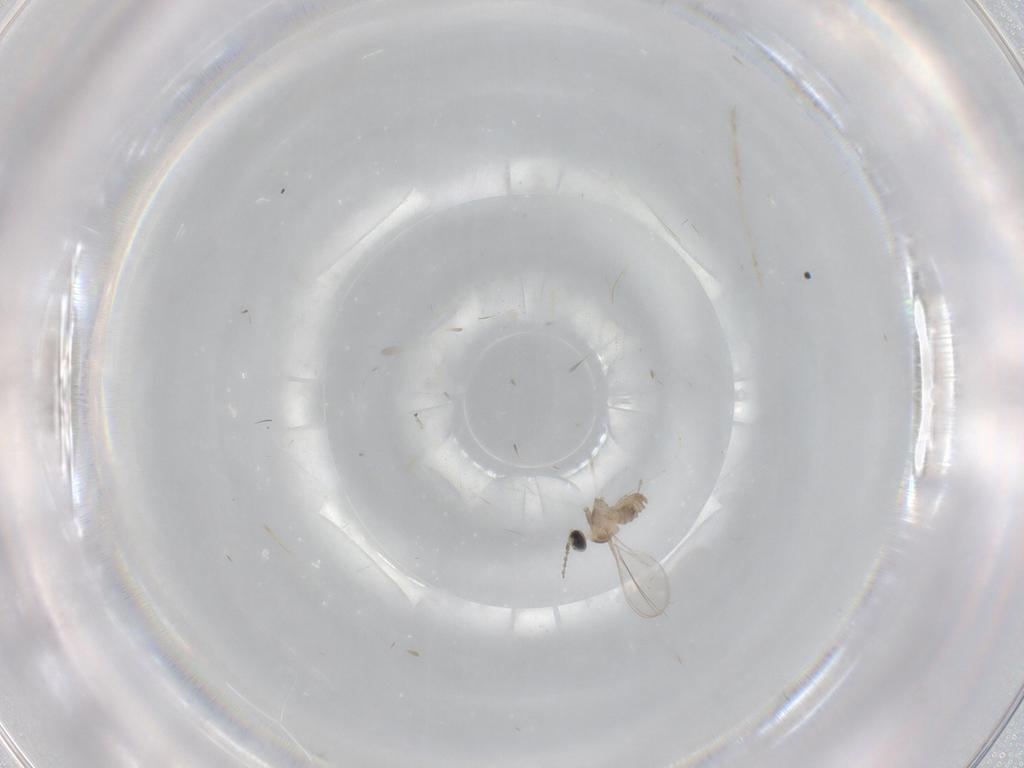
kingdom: Animalia
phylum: Arthropoda
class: Insecta
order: Diptera
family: Cecidomyiidae
